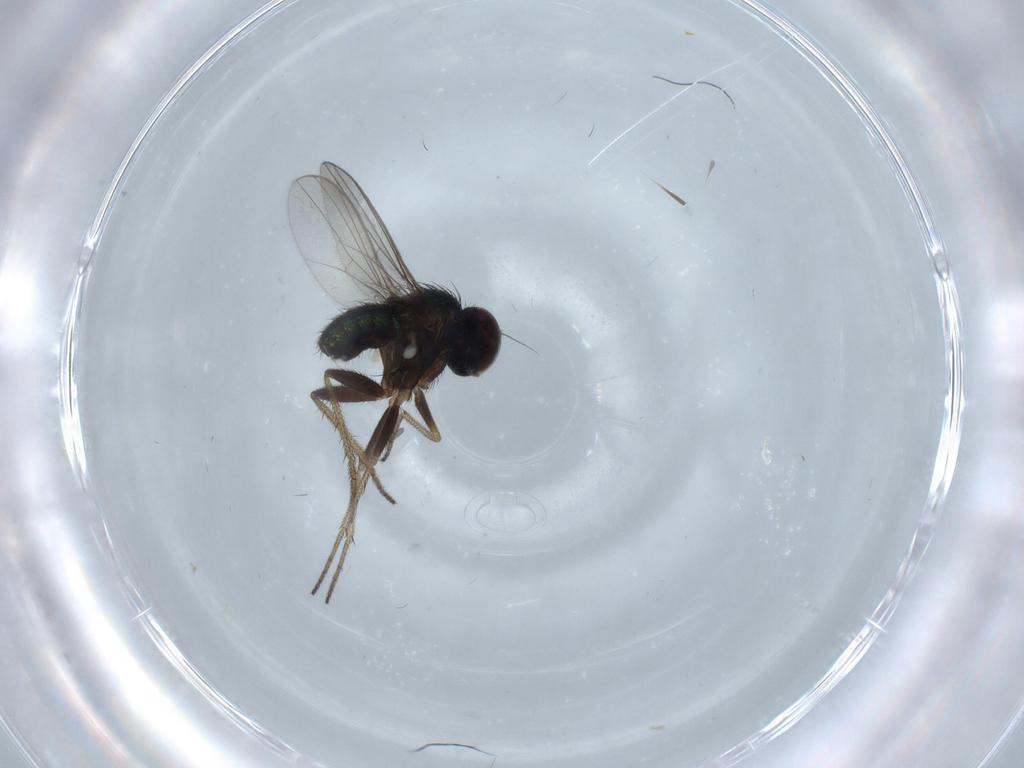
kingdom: Animalia
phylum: Arthropoda
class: Insecta
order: Diptera
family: Dolichopodidae
